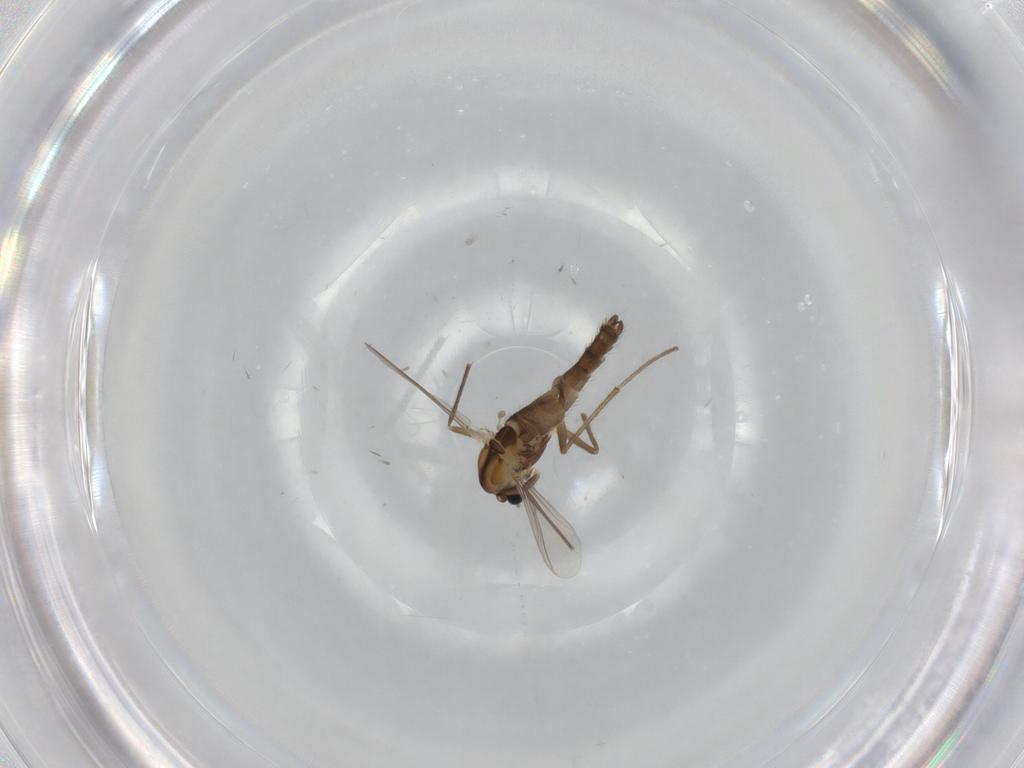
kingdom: Animalia
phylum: Arthropoda
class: Insecta
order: Diptera
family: Chironomidae
